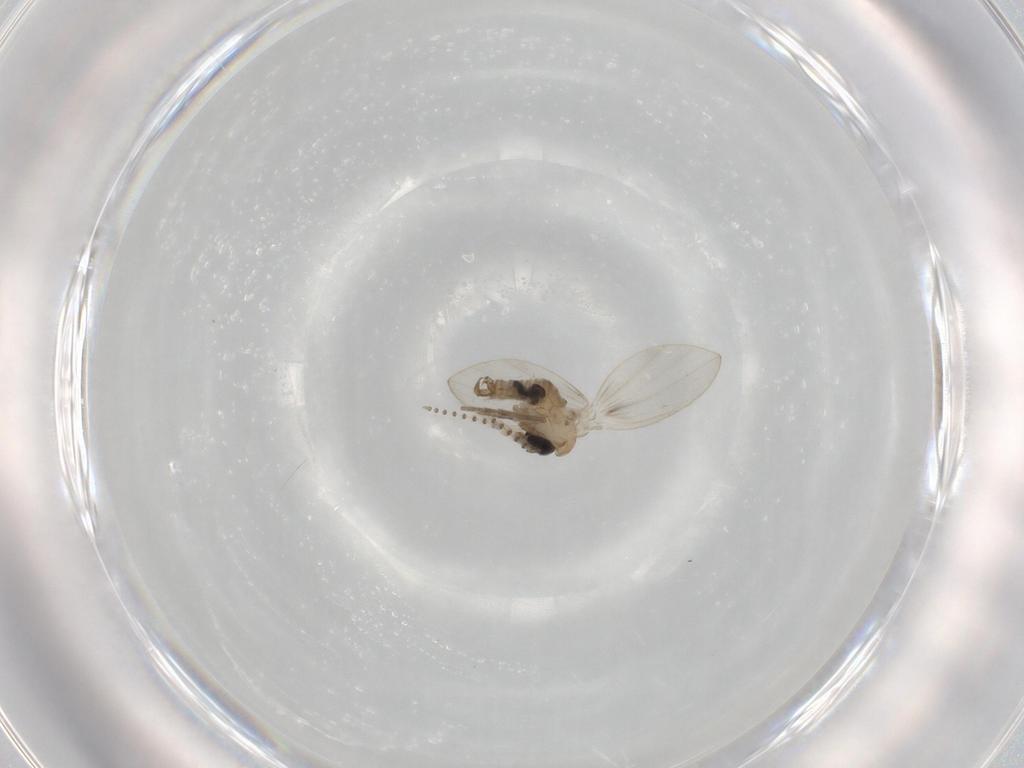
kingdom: Animalia
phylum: Arthropoda
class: Insecta
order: Diptera
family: Psychodidae
